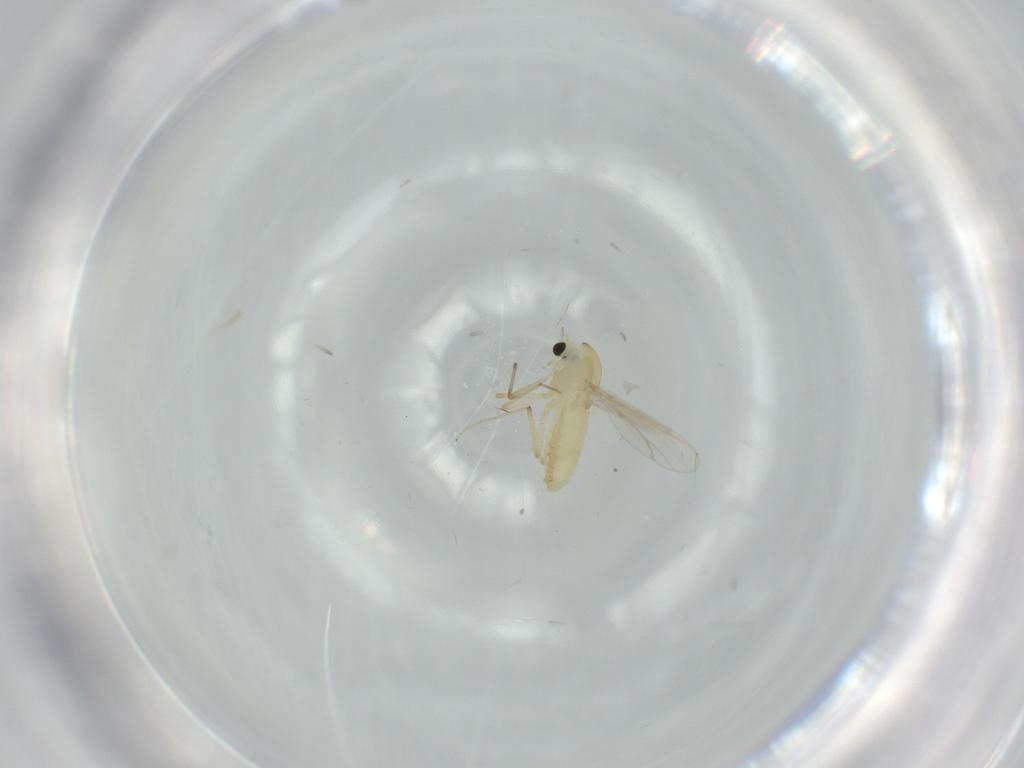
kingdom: Animalia
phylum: Arthropoda
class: Insecta
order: Diptera
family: Chironomidae
